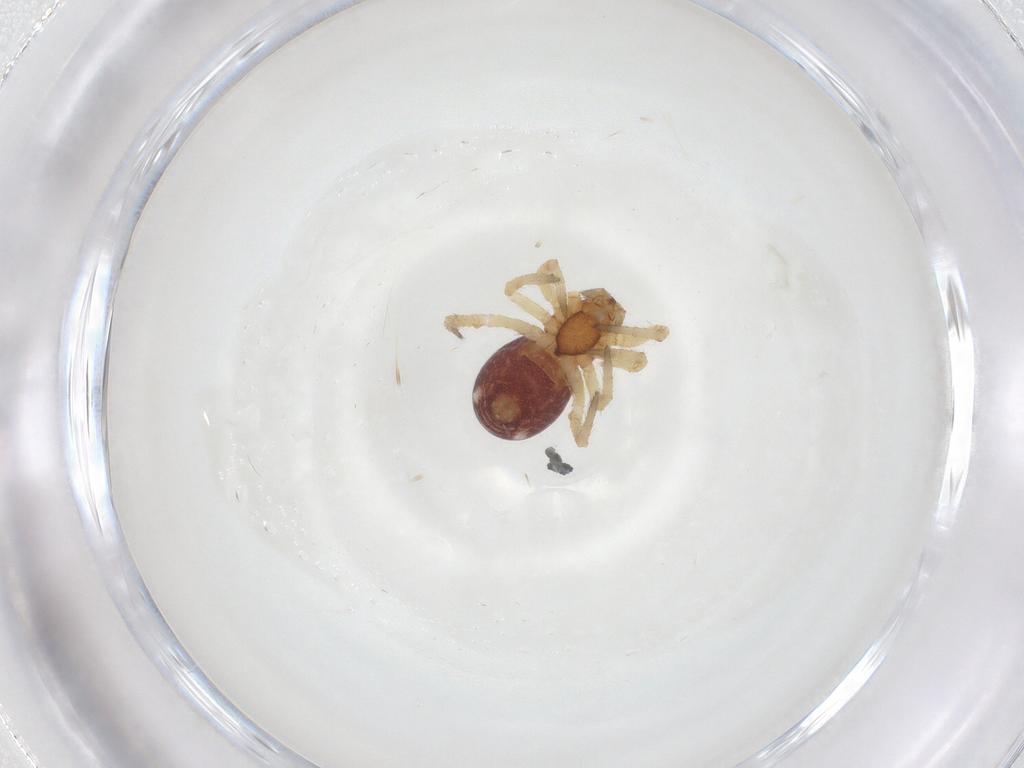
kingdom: Animalia
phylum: Arthropoda
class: Arachnida
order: Araneae
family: Theridiidae
